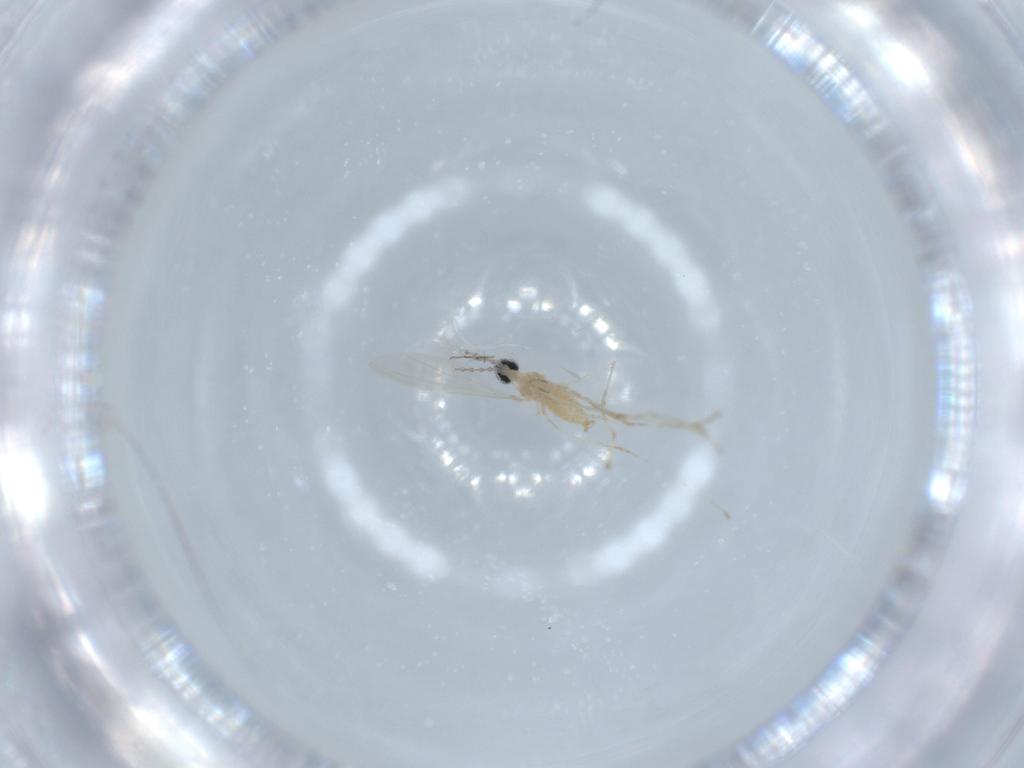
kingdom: Animalia
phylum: Arthropoda
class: Insecta
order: Diptera
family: Cecidomyiidae
